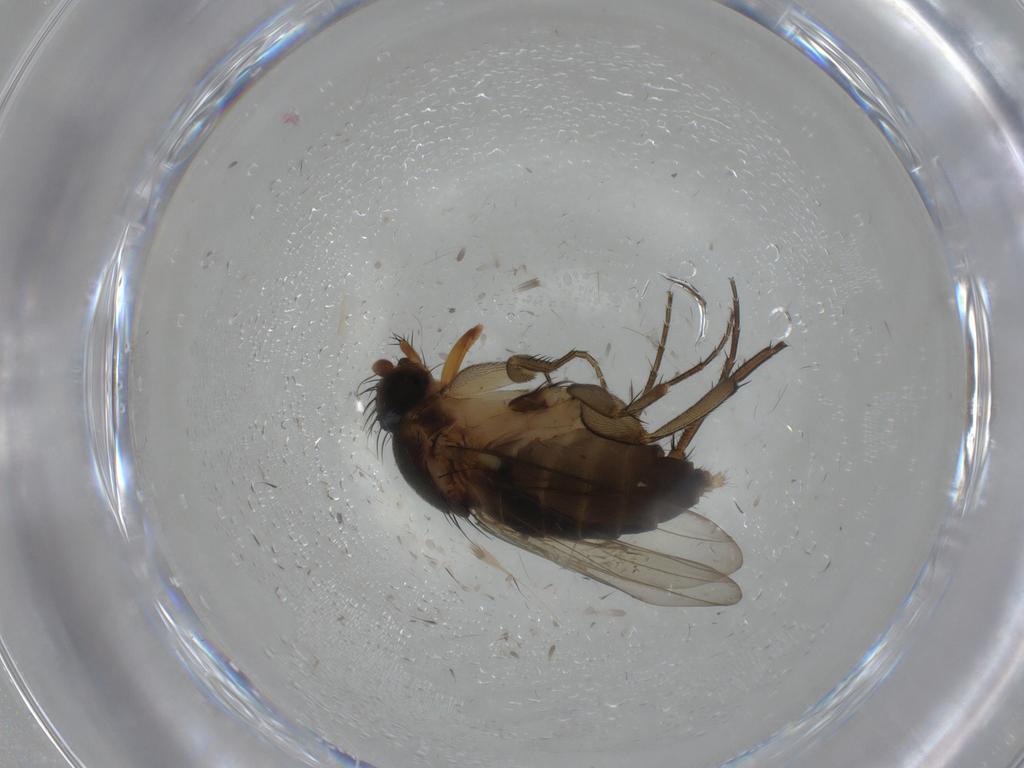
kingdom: Animalia
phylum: Arthropoda
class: Insecta
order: Diptera
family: Phoridae
